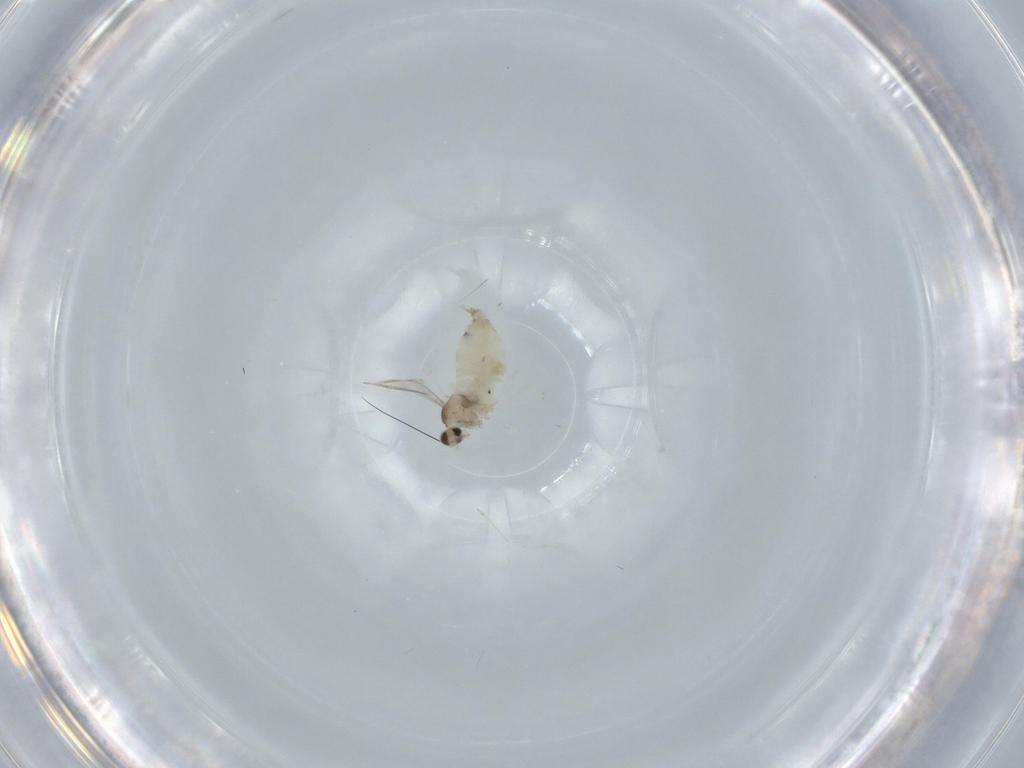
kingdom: Animalia
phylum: Arthropoda
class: Insecta
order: Diptera
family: Cecidomyiidae
